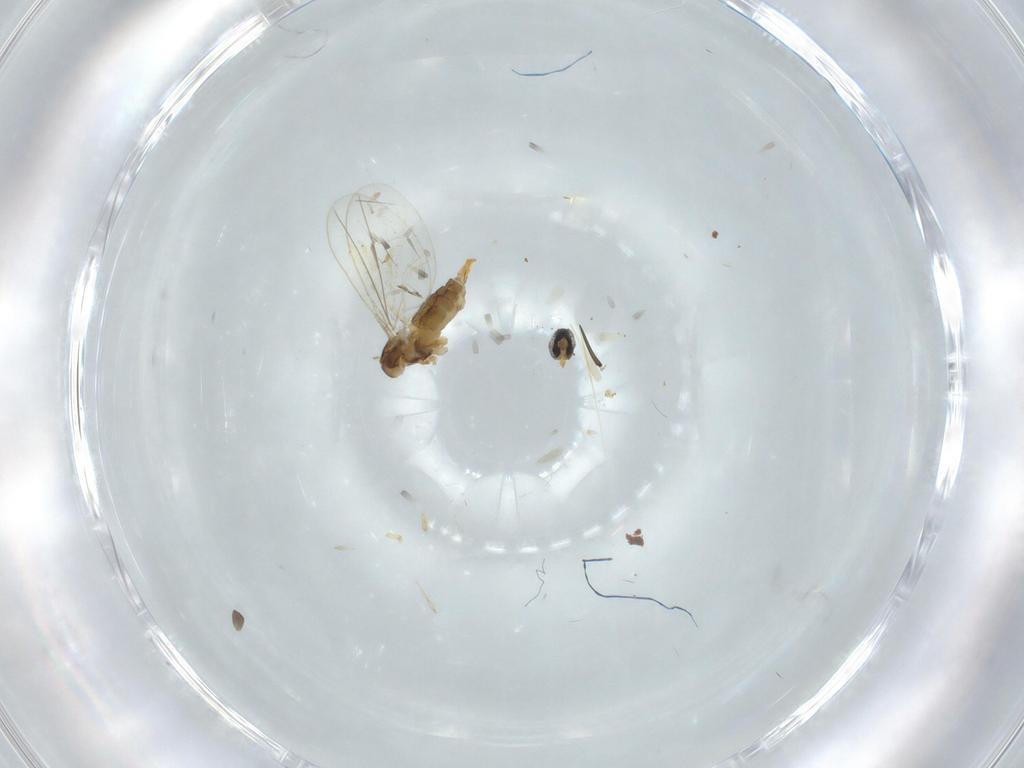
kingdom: Animalia
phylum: Arthropoda
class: Insecta
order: Diptera
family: Cecidomyiidae
